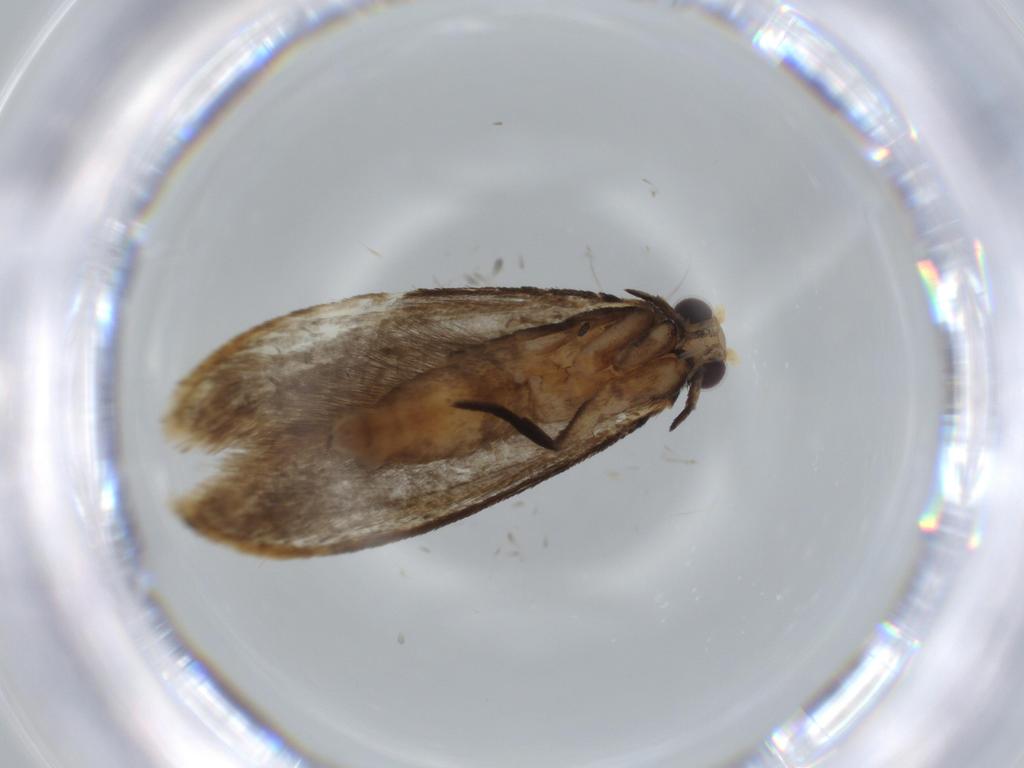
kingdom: Animalia
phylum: Arthropoda
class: Insecta
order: Lepidoptera
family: Tineidae
